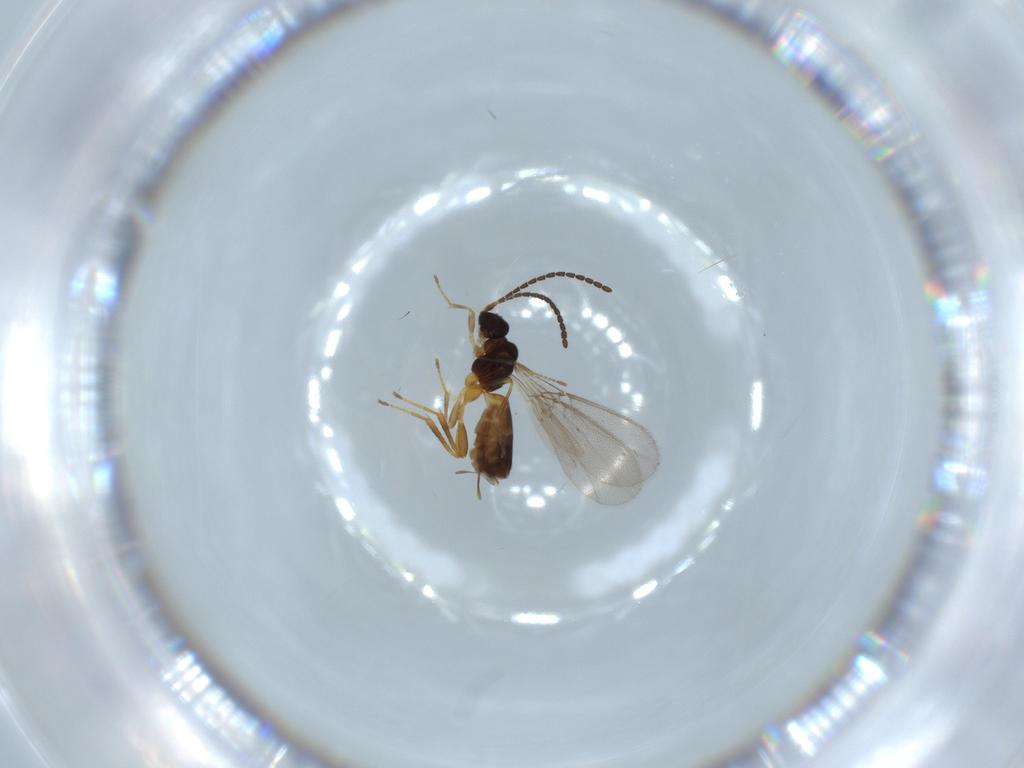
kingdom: Animalia
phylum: Arthropoda
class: Insecta
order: Hymenoptera
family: Braconidae
